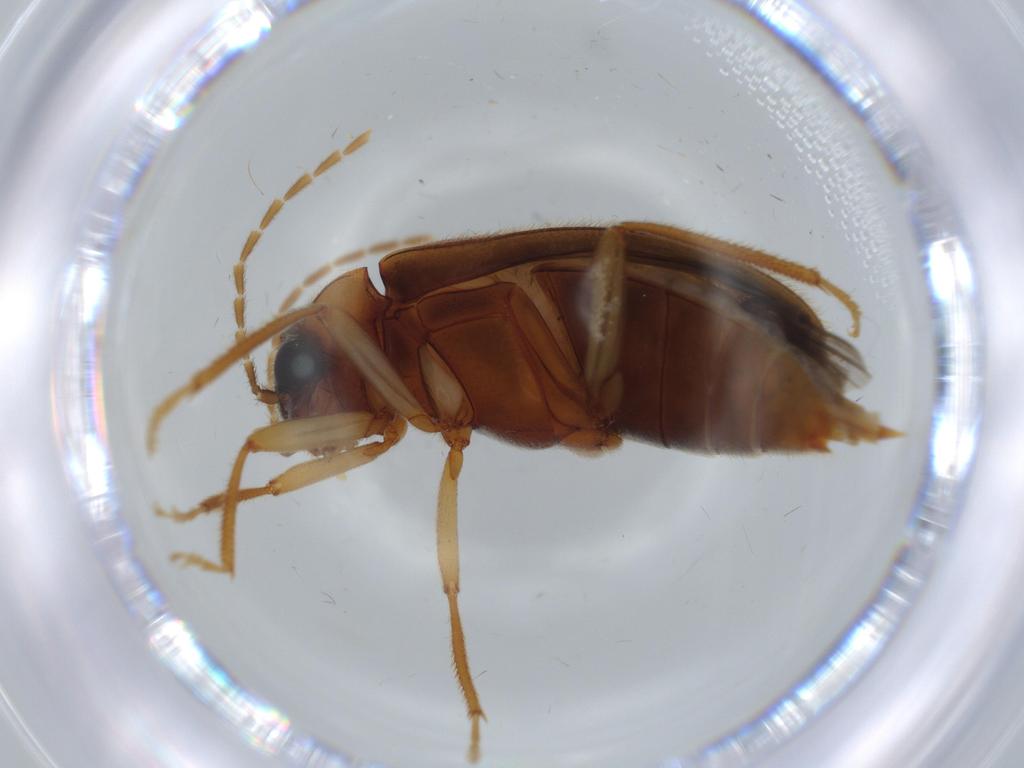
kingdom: Animalia
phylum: Arthropoda
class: Insecta
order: Coleoptera
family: Ptilodactylidae
